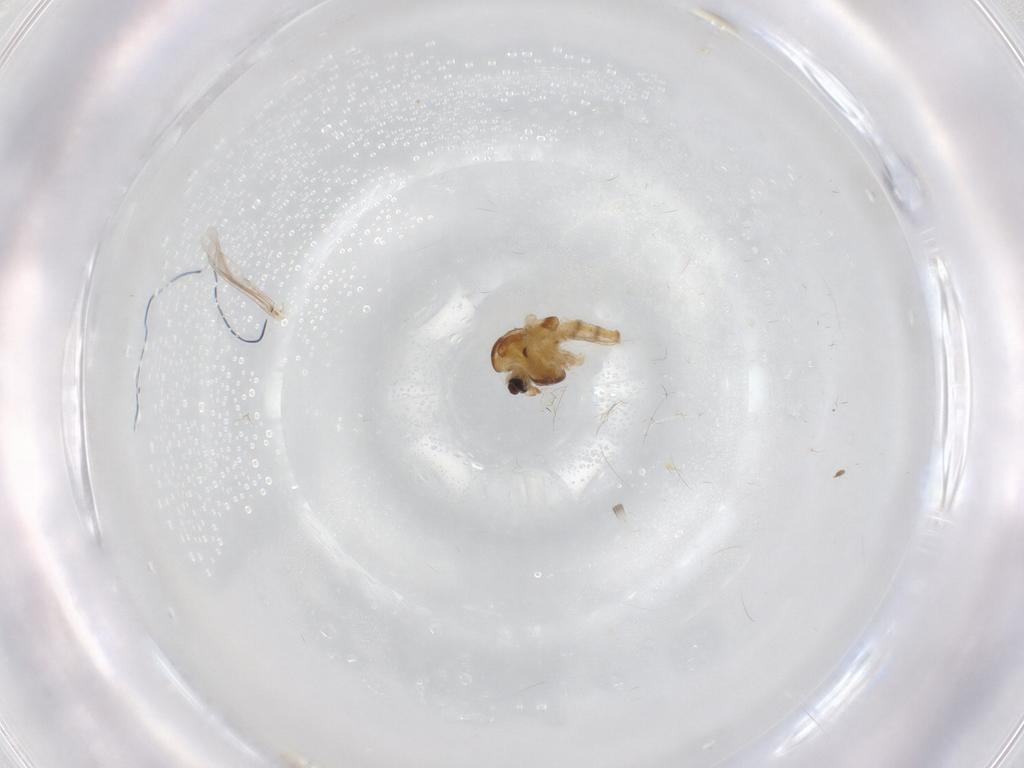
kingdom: Animalia
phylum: Arthropoda
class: Insecta
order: Diptera
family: Chironomidae
